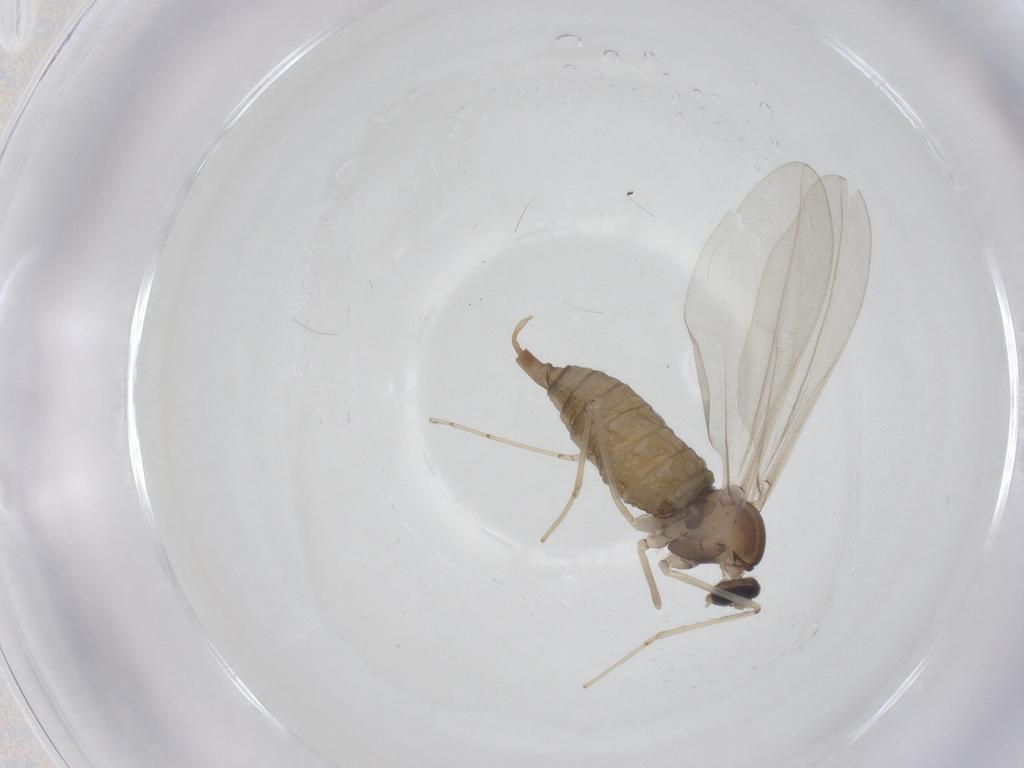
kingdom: Animalia
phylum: Arthropoda
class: Insecta
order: Diptera
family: Cecidomyiidae
